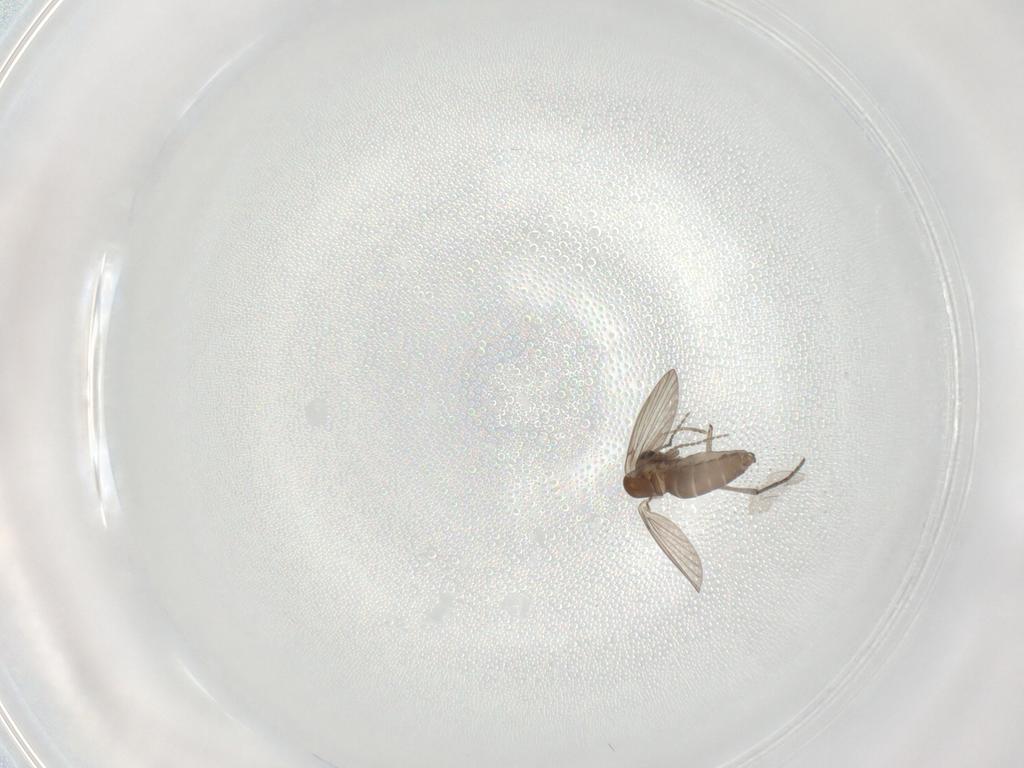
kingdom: Animalia
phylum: Arthropoda
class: Insecta
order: Diptera
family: Sciaridae
